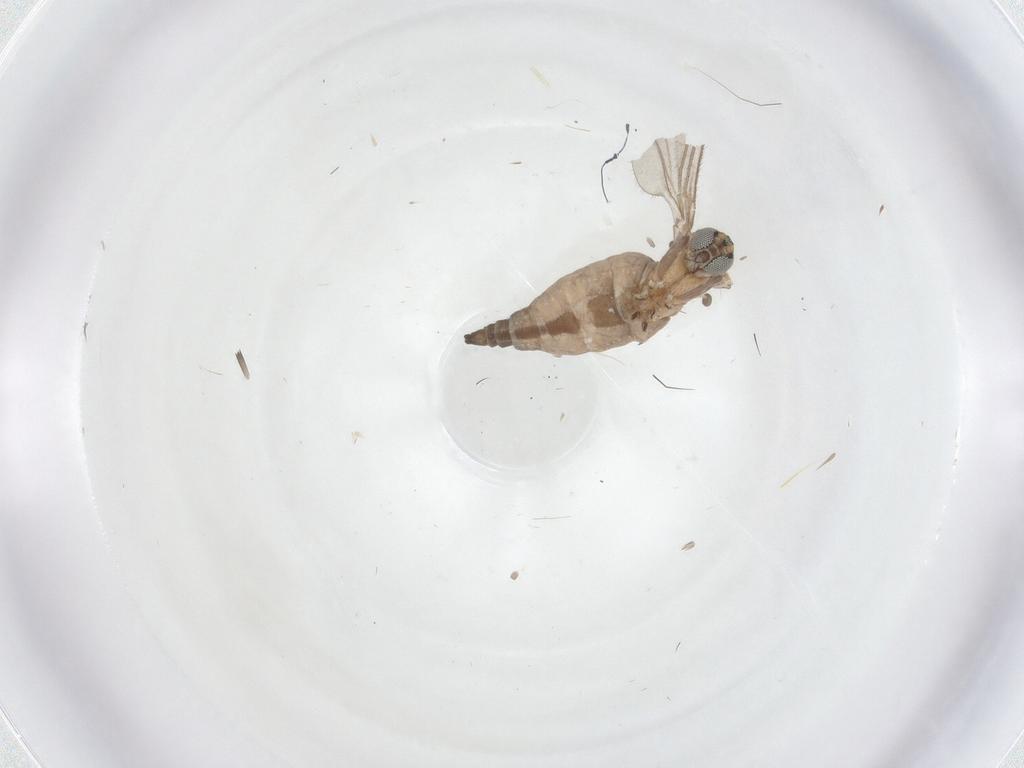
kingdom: Animalia
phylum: Arthropoda
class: Insecta
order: Diptera
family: Sciaridae
